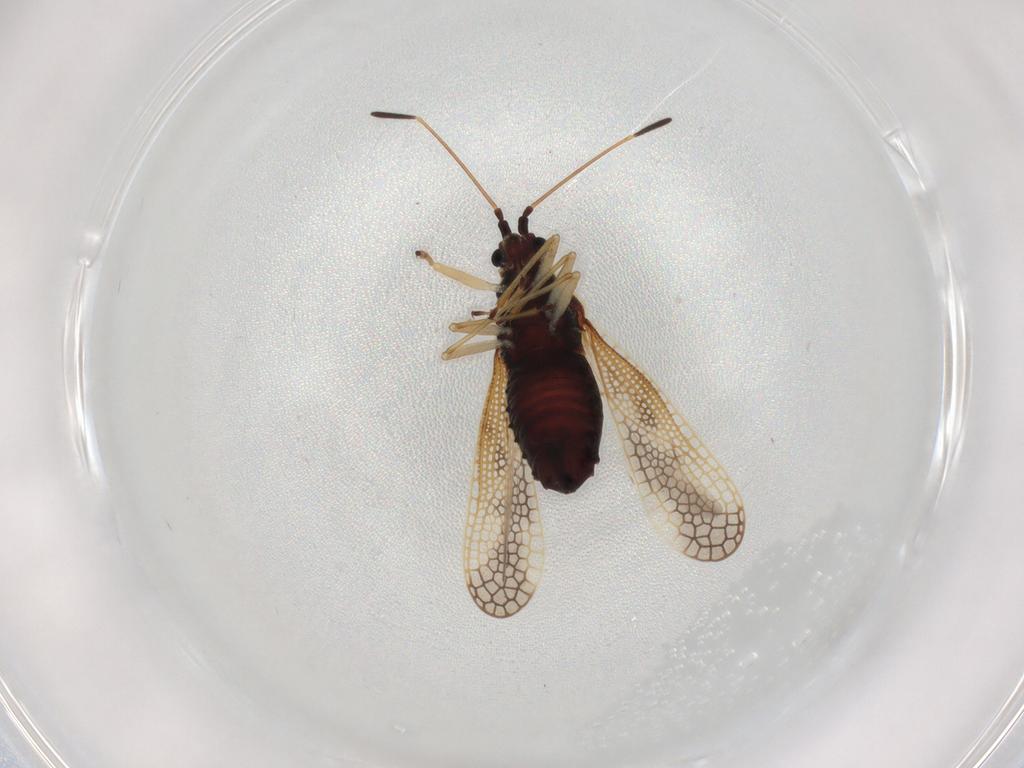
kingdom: Animalia
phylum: Arthropoda
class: Insecta
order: Hemiptera
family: Tingidae
